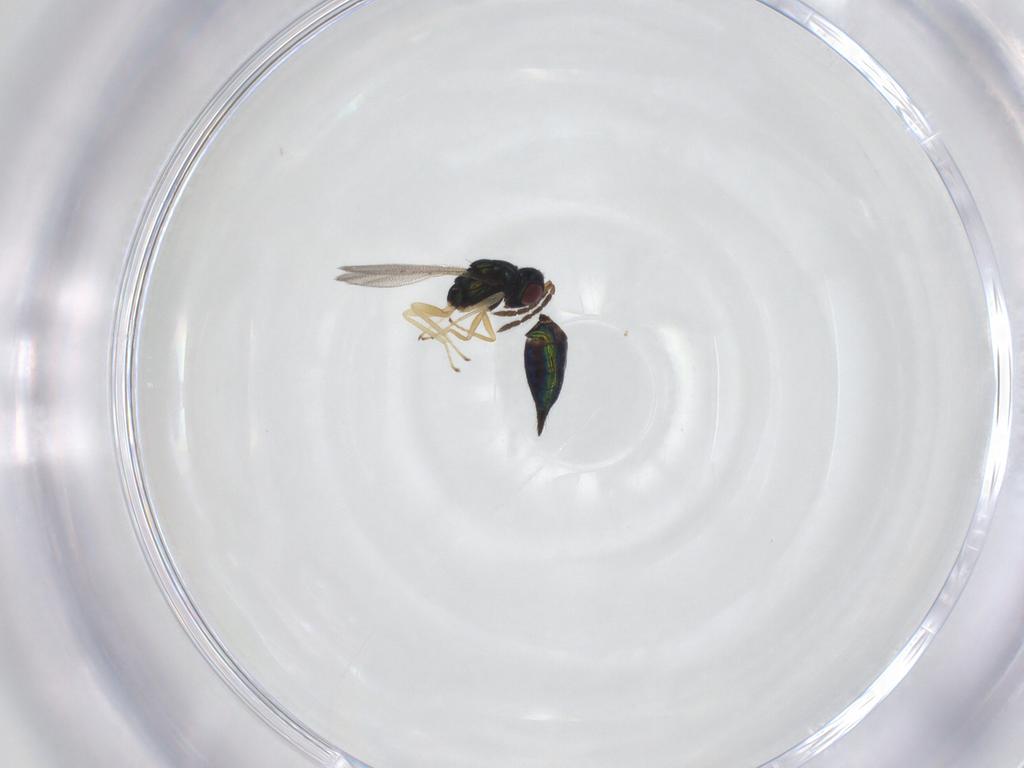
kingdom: Animalia
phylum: Arthropoda
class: Insecta
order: Hymenoptera
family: Eulophidae
